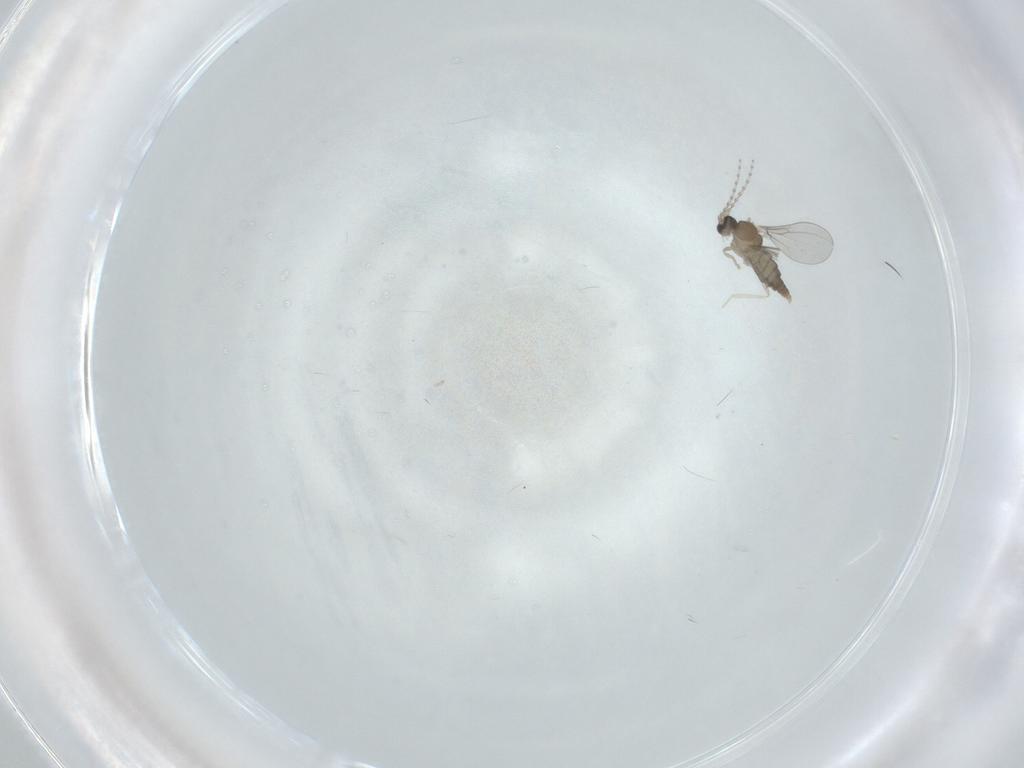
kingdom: Animalia
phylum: Arthropoda
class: Insecta
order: Diptera
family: Cecidomyiidae
